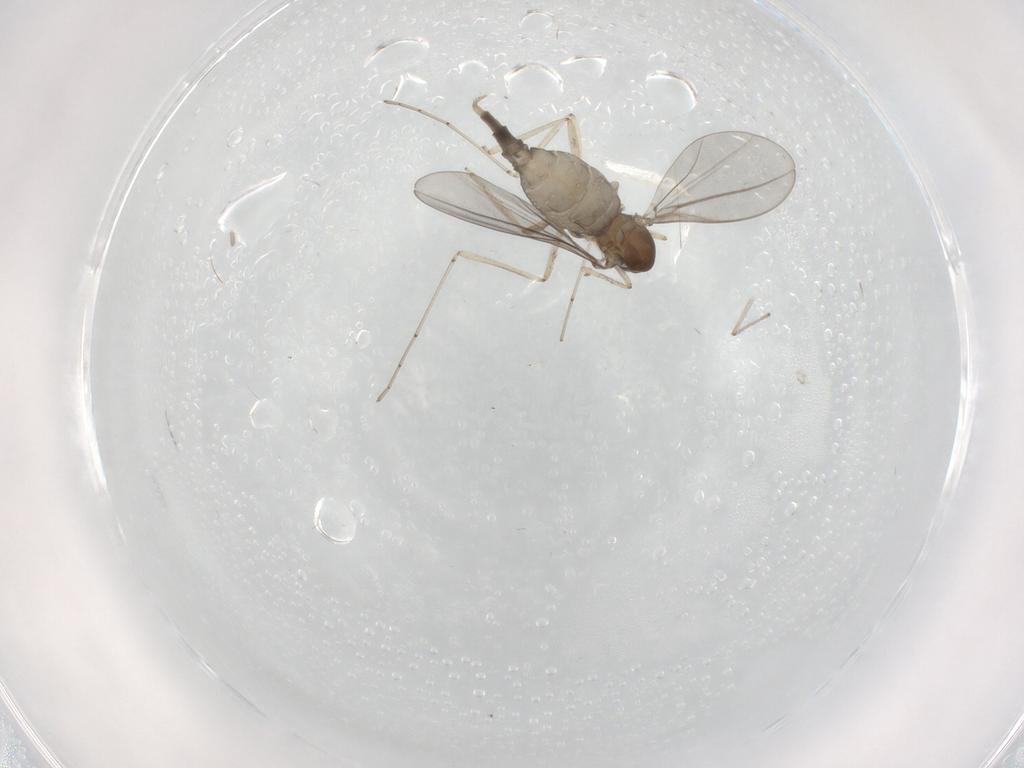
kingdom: Animalia
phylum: Arthropoda
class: Insecta
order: Diptera
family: Cecidomyiidae
